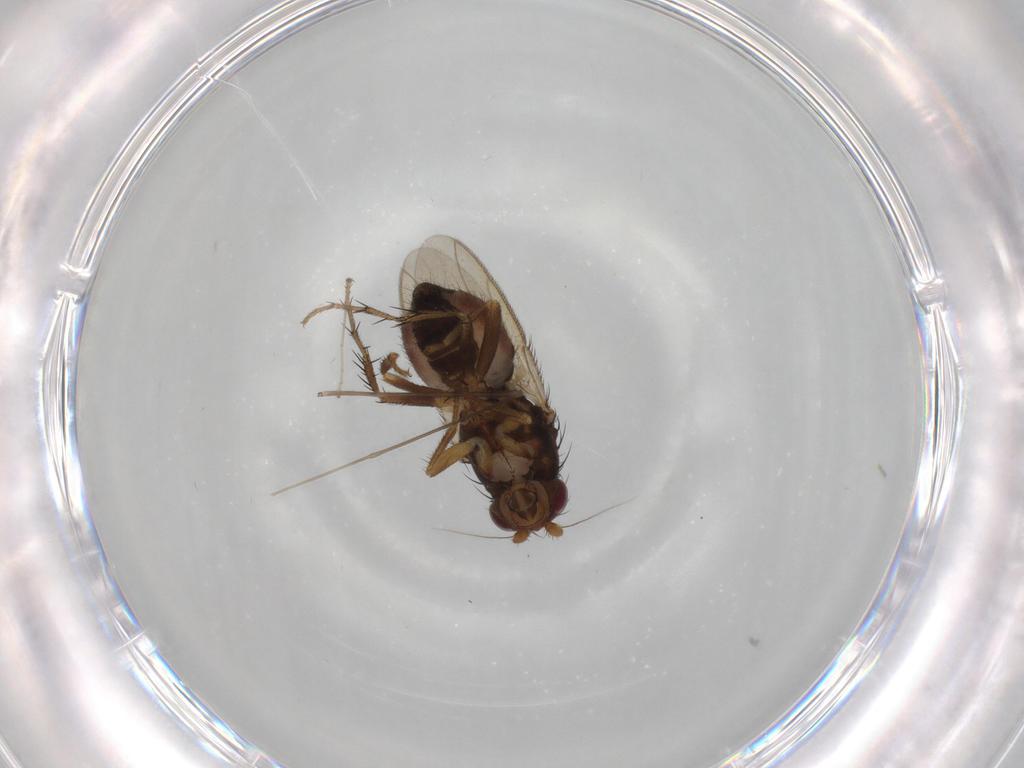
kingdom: Animalia
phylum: Arthropoda
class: Insecta
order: Diptera
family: Sphaeroceridae
